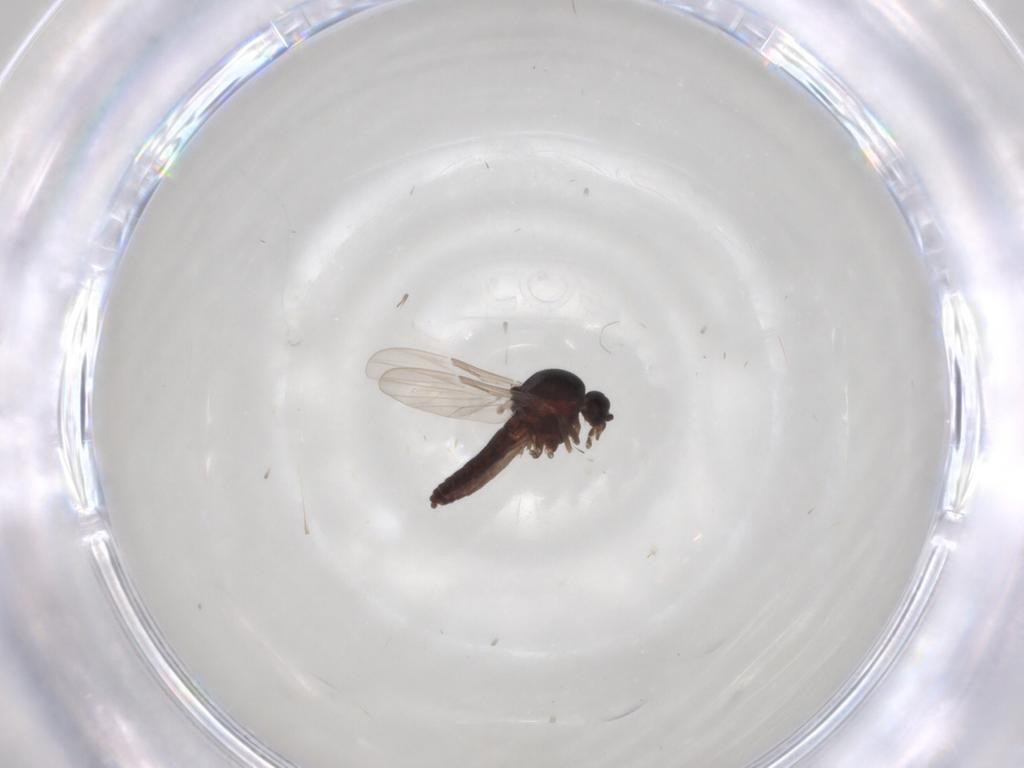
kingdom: Animalia
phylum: Arthropoda
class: Insecta
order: Diptera
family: Ceratopogonidae
